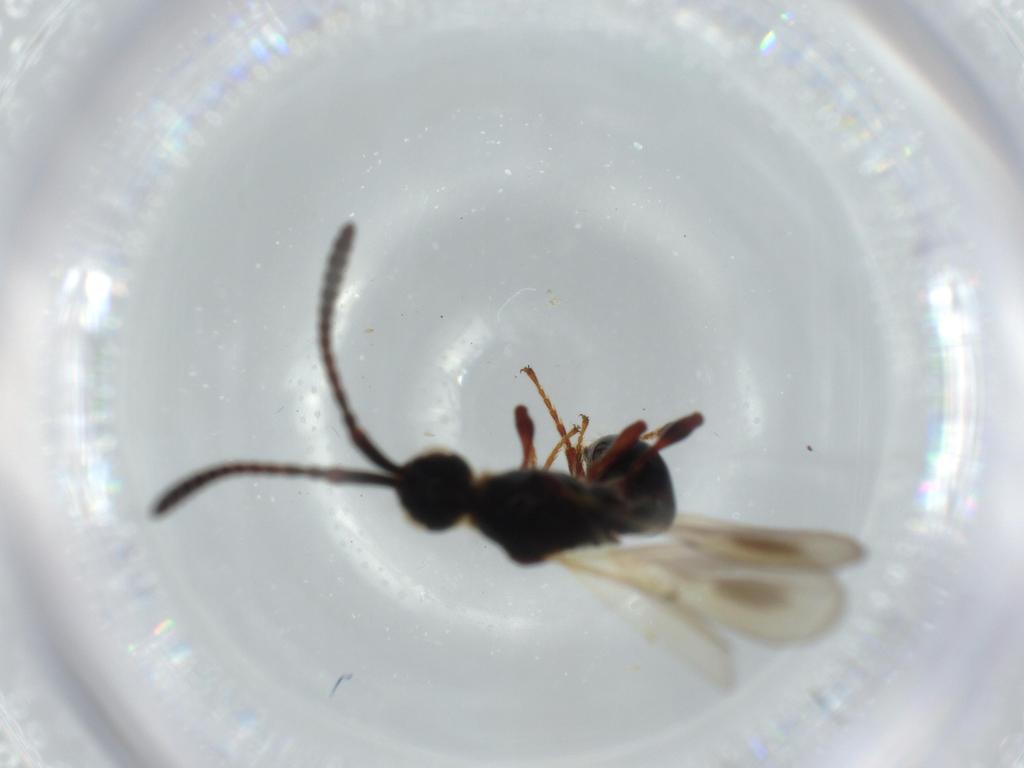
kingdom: Animalia
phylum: Arthropoda
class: Insecta
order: Hymenoptera
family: Diapriidae
